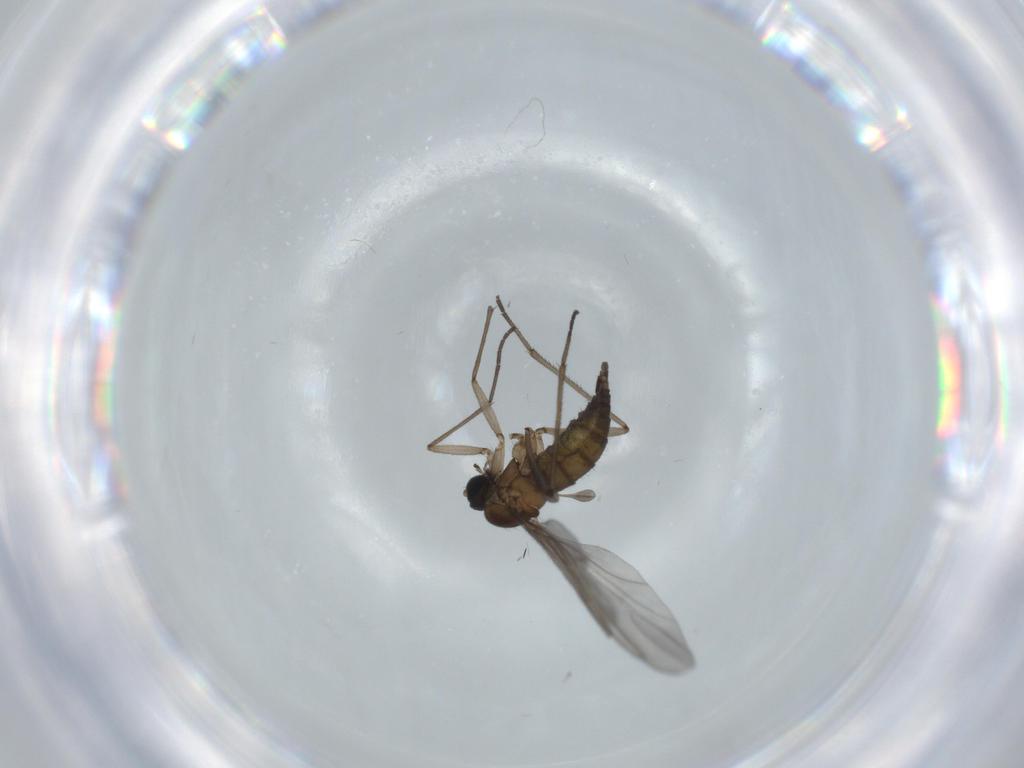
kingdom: Animalia
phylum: Arthropoda
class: Insecta
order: Diptera
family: Sciaridae
